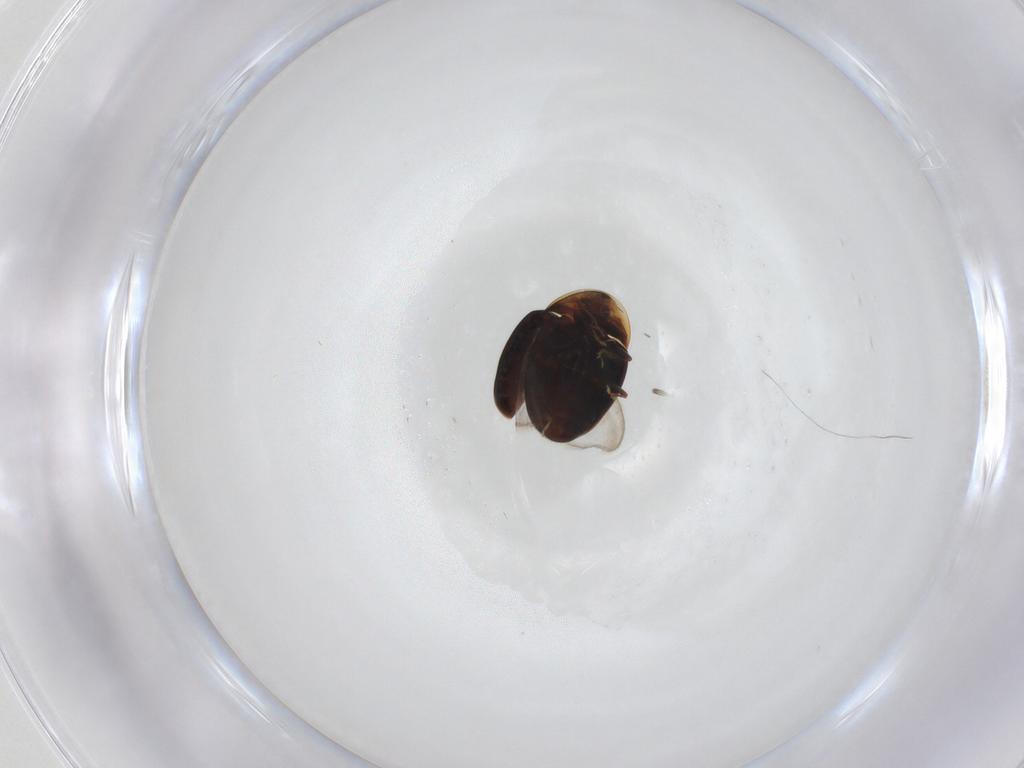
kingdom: Animalia
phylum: Arthropoda
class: Insecta
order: Coleoptera
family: Corylophidae
